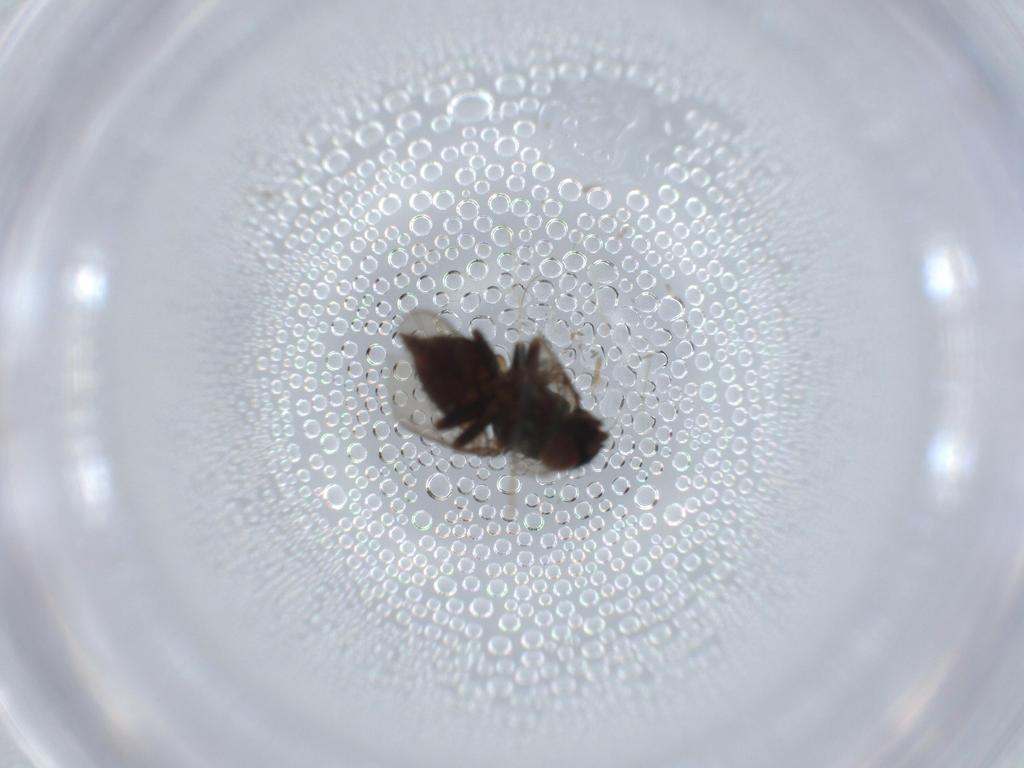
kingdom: Animalia
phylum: Arthropoda
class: Insecta
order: Diptera
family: Milichiidae
